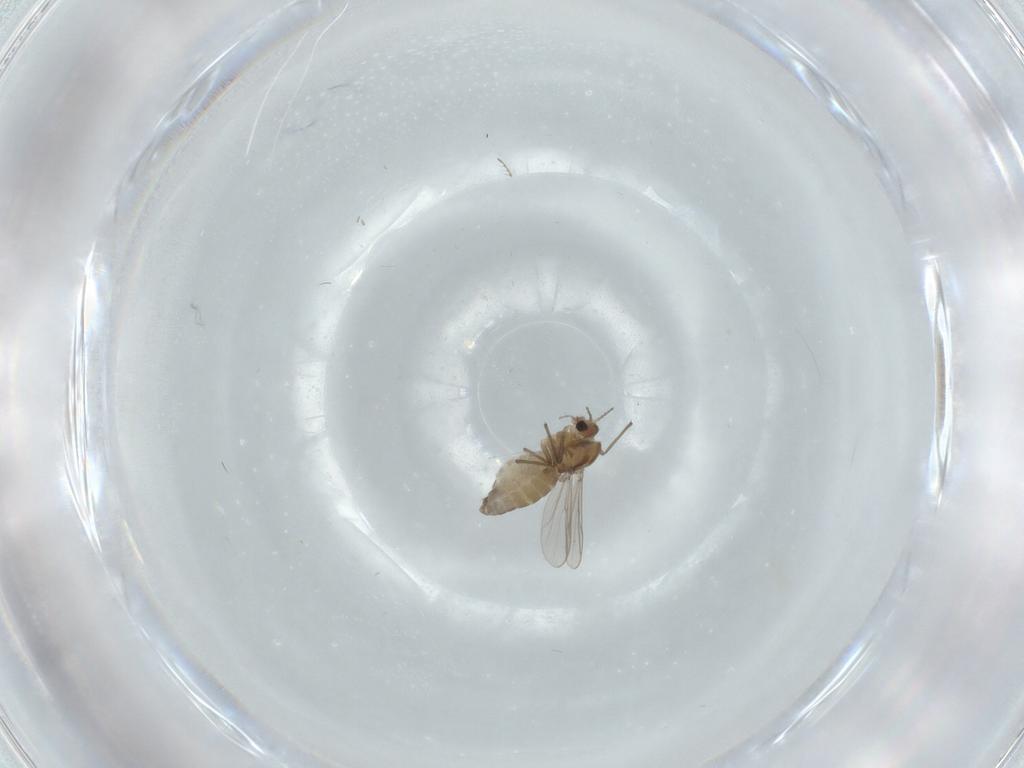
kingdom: Animalia
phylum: Arthropoda
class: Insecta
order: Diptera
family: Chironomidae
